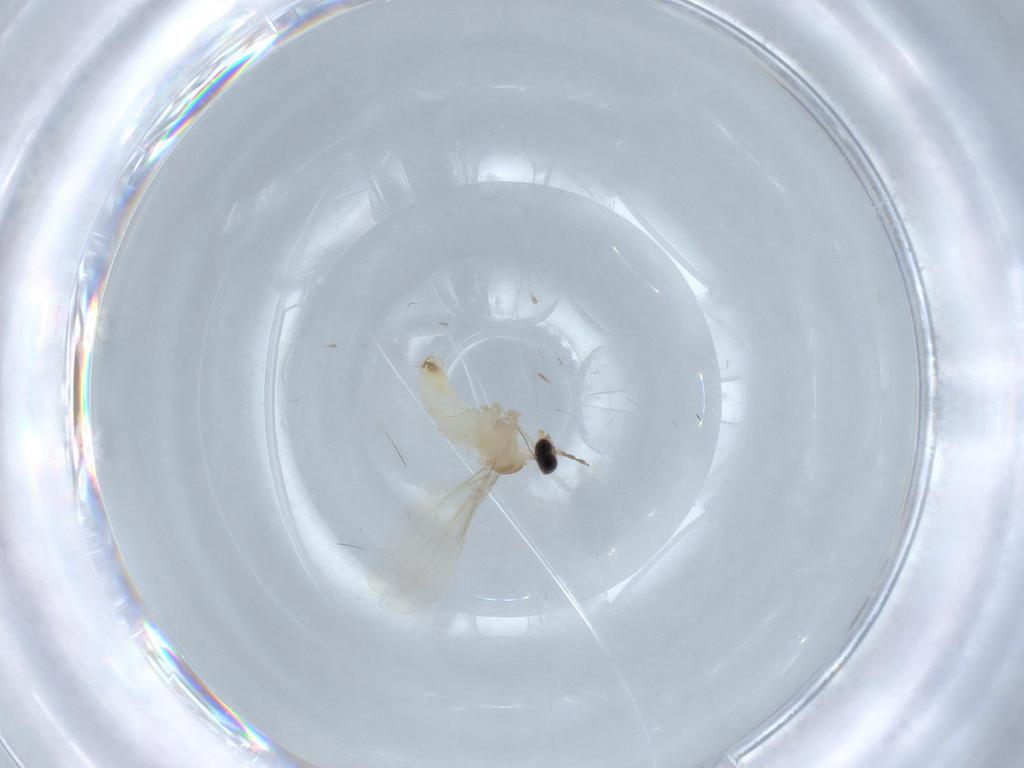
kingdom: Animalia
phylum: Arthropoda
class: Insecta
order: Diptera
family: Cecidomyiidae
